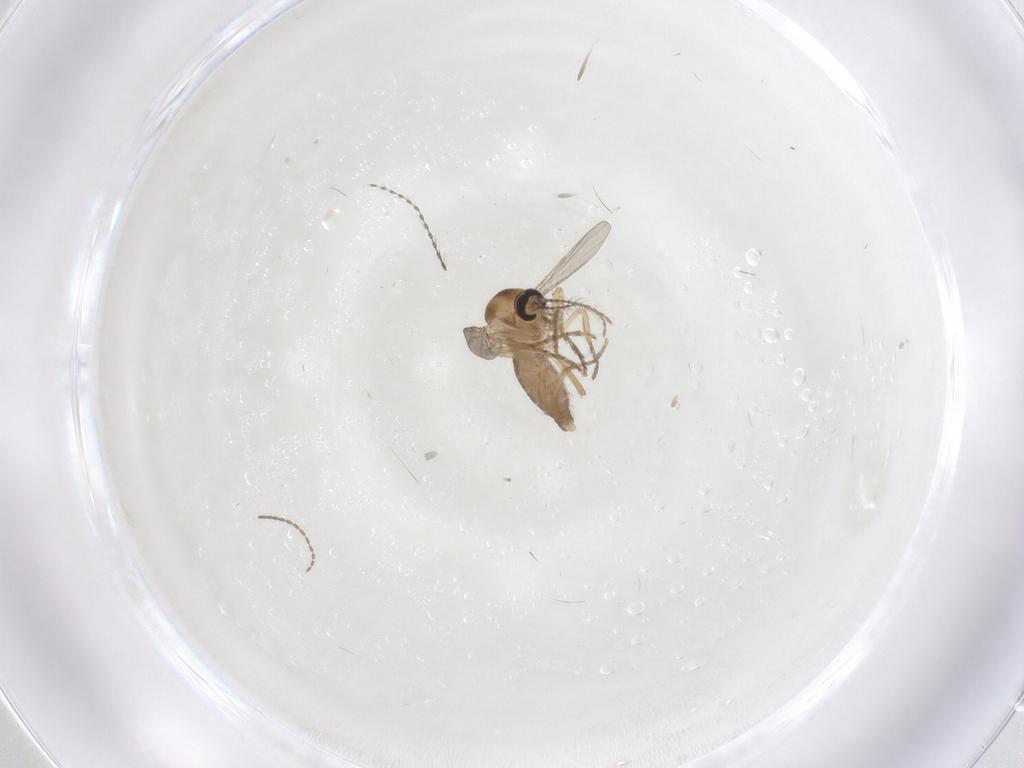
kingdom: Animalia
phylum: Arthropoda
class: Insecta
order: Diptera
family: Ceratopogonidae
